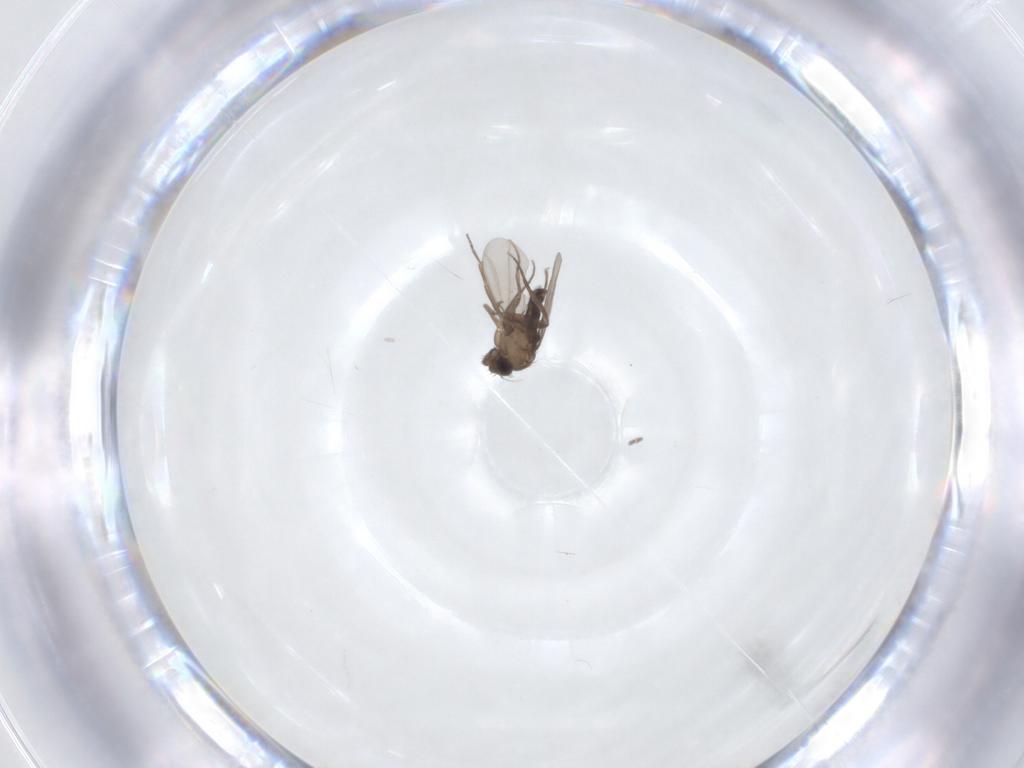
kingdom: Animalia
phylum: Arthropoda
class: Insecta
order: Diptera
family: Phoridae
